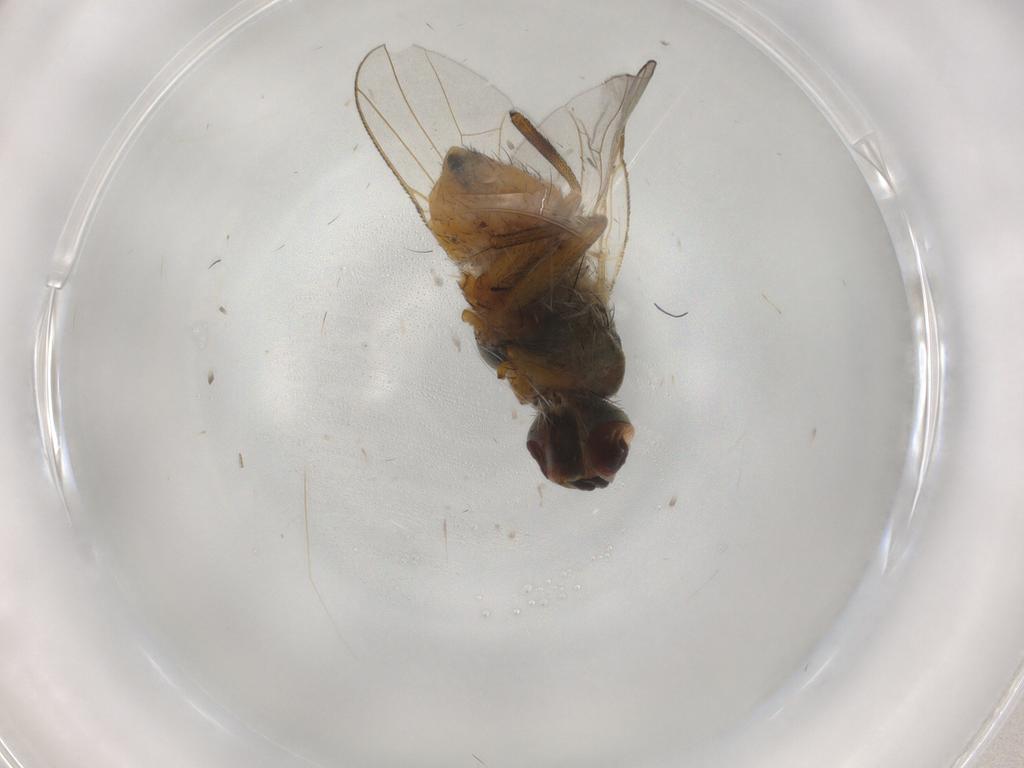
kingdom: Animalia
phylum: Arthropoda
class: Insecta
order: Diptera
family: Muscidae
